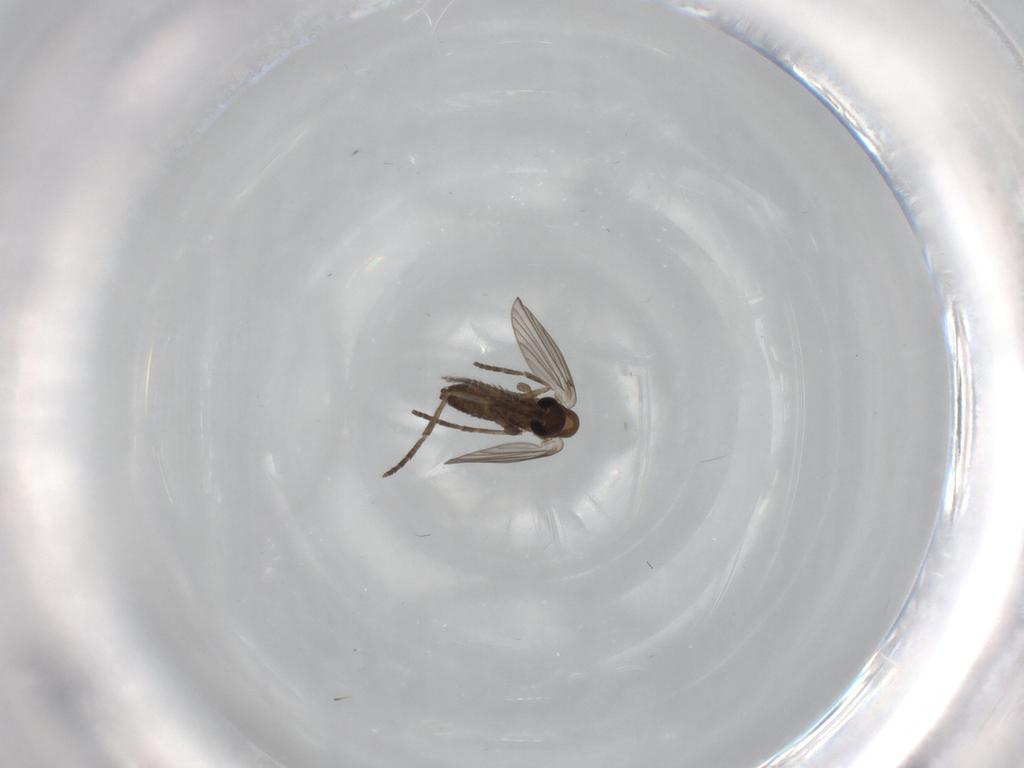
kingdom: Animalia
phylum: Arthropoda
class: Insecta
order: Diptera
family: Psychodidae
